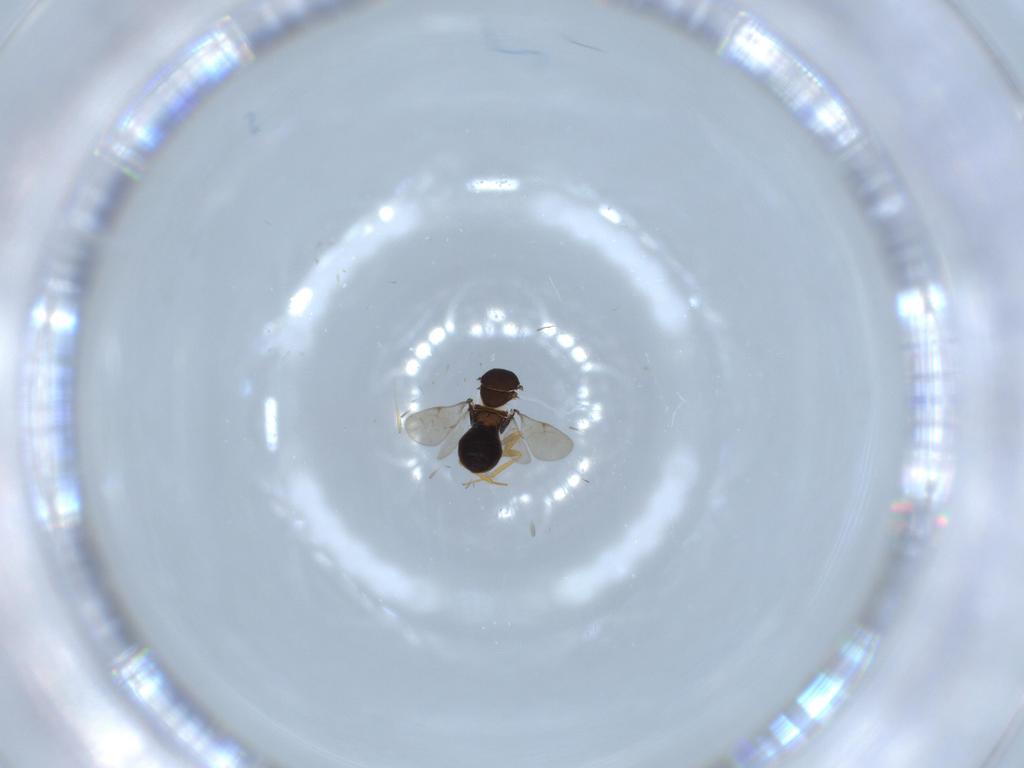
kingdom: Animalia
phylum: Arthropoda
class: Insecta
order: Hymenoptera
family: Scelionidae
